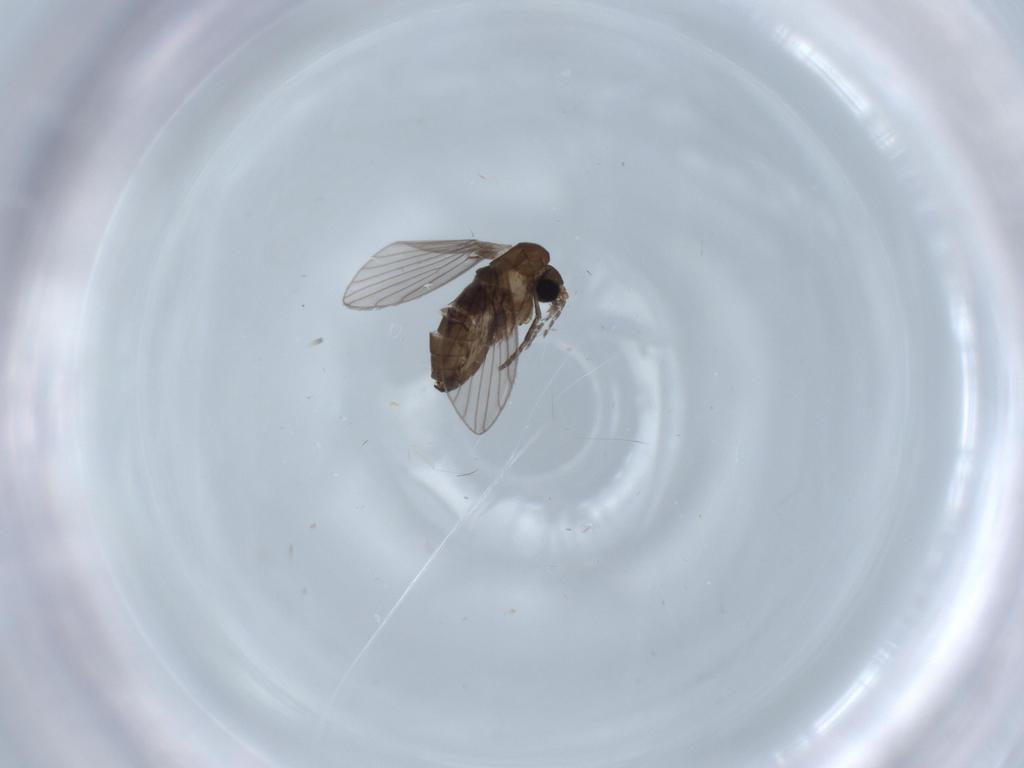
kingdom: Animalia
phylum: Arthropoda
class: Insecta
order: Diptera
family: Psychodidae
